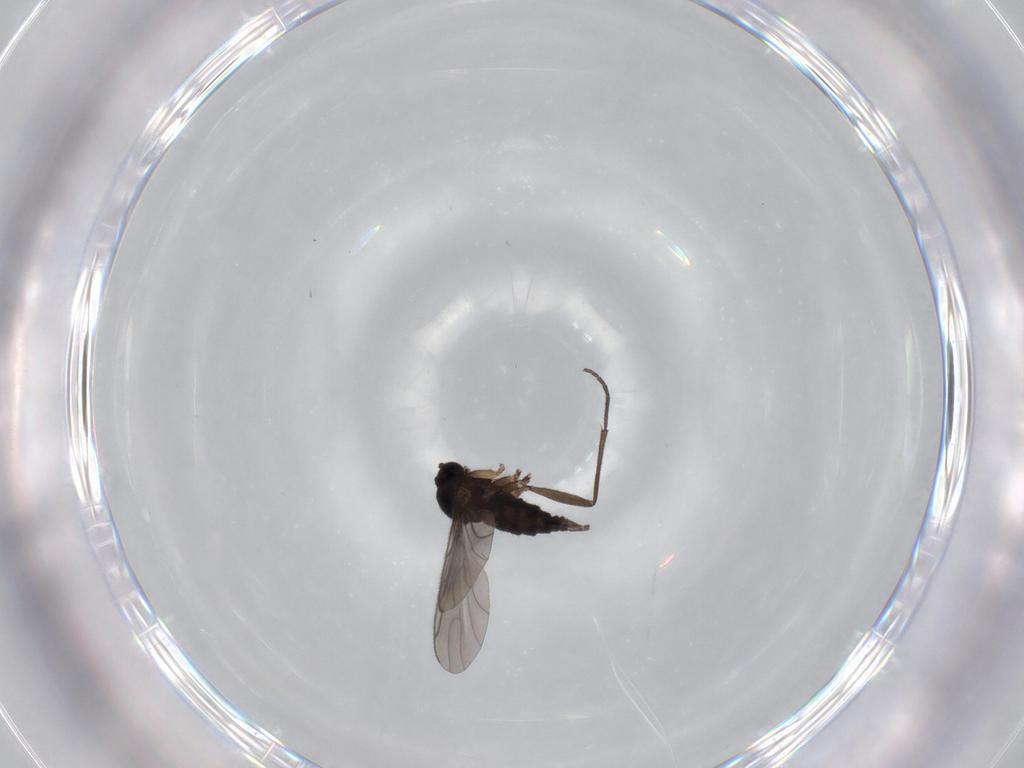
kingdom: Animalia
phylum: Arthropoda
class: Insecta
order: Diptera
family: Sciaridae
